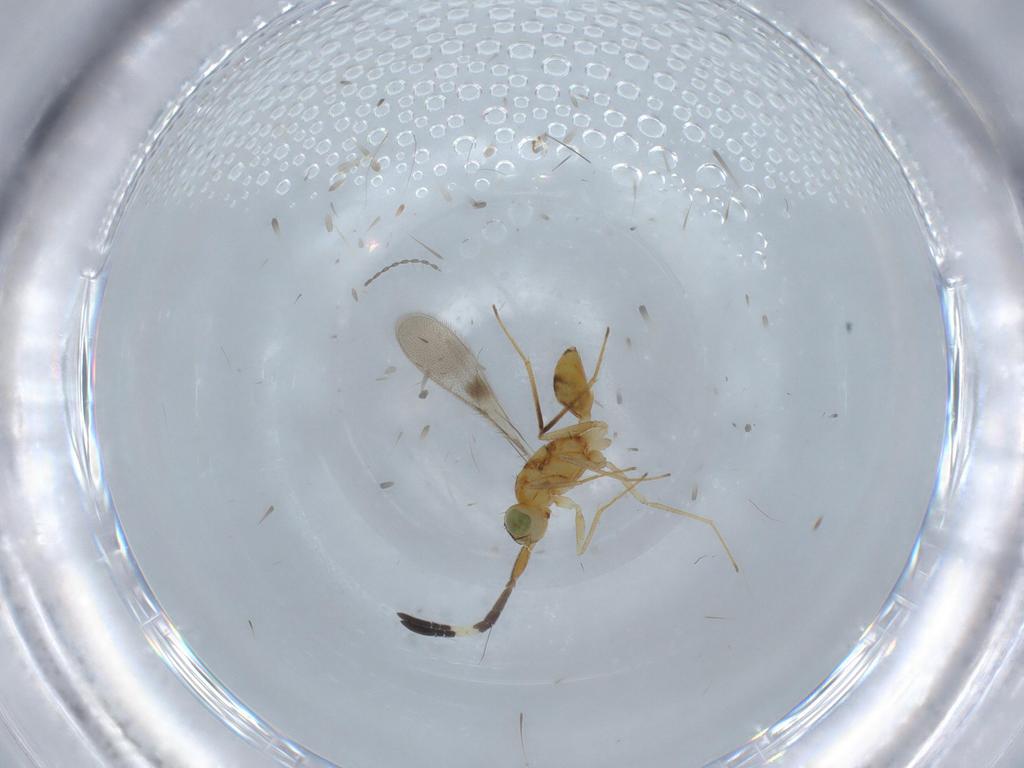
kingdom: Animalia
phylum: Arthropoda
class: Insecta
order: Hymenoptera
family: Mymaridae
